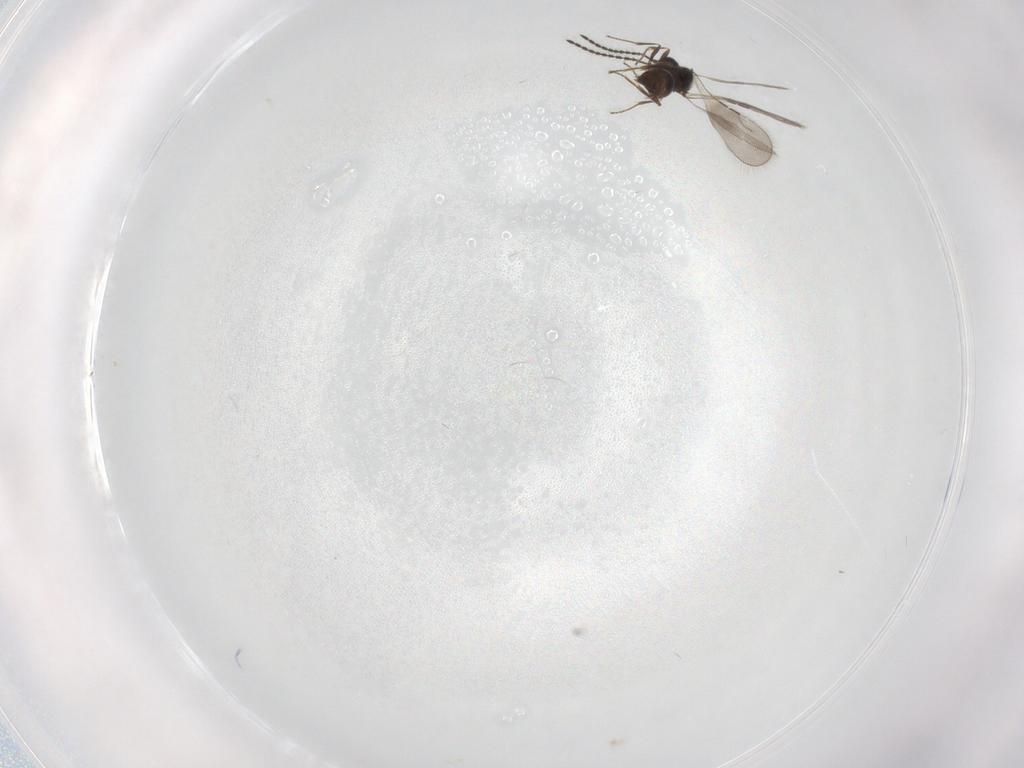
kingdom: Animalia
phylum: Arthropoda
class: Insecta
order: Hymenoptera
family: Ceraphronidae
